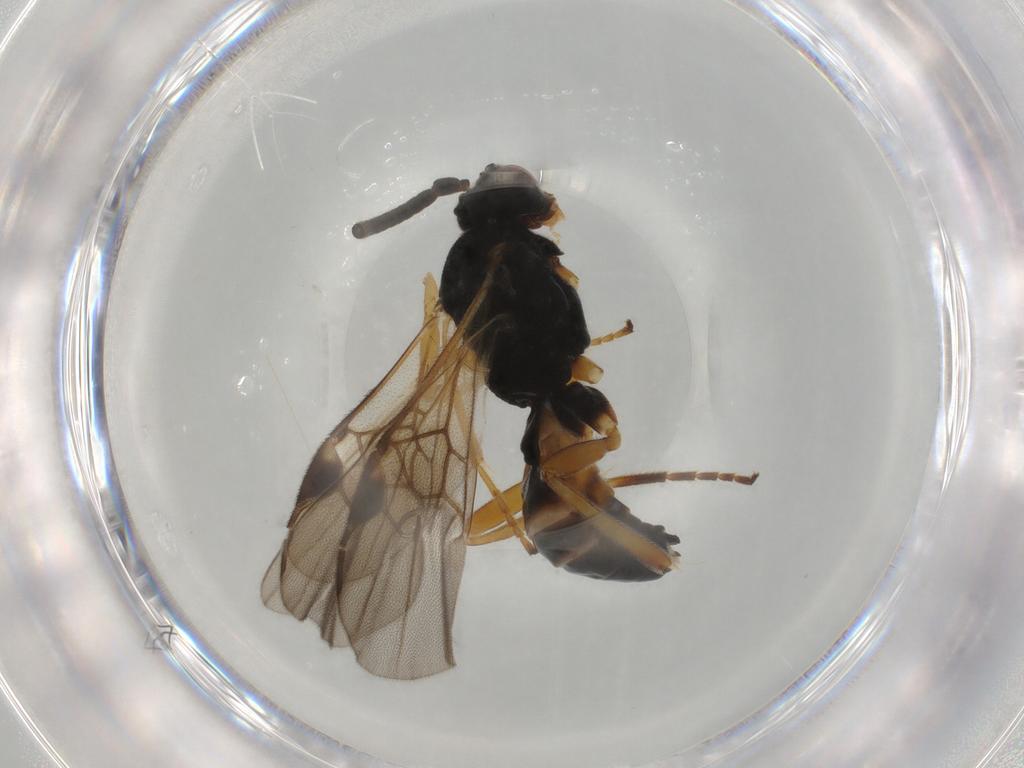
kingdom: Animalia
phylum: Arthropoda
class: Insecta
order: Hymenoptera
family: Braconidae
